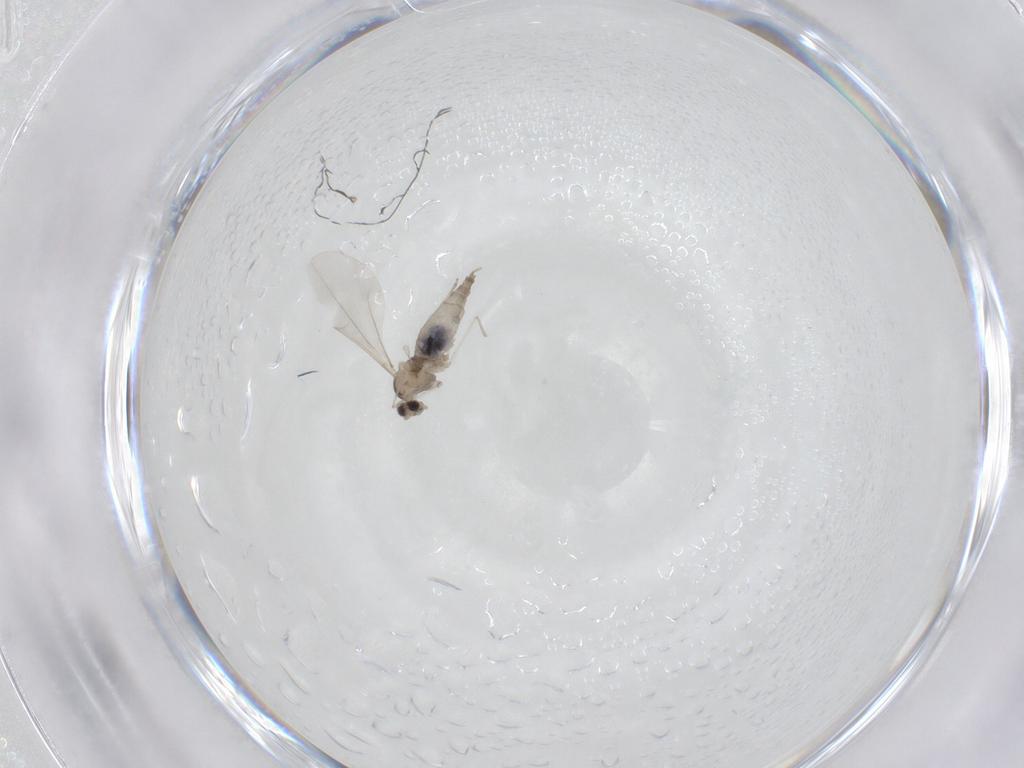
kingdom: Animalia
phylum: Arthropoda
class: Insecta
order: Diptera
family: Cecidomyiidae
